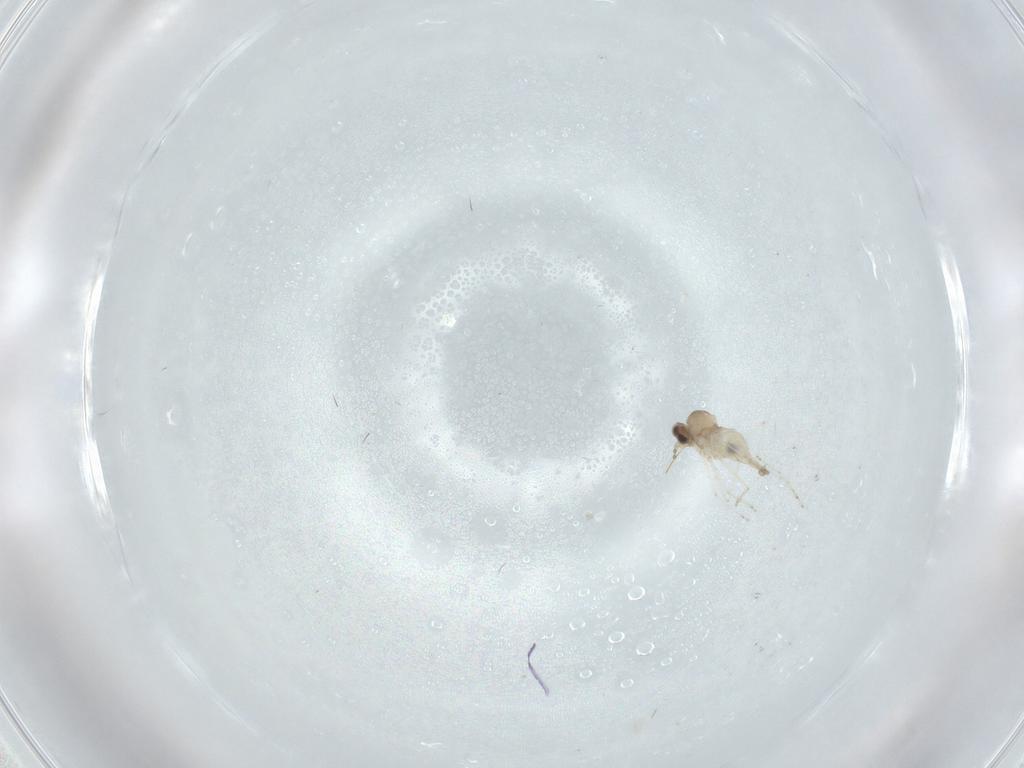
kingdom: Animalia
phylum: Arthropoda
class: Insecta
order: Diptera
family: Cecidomyiidae
